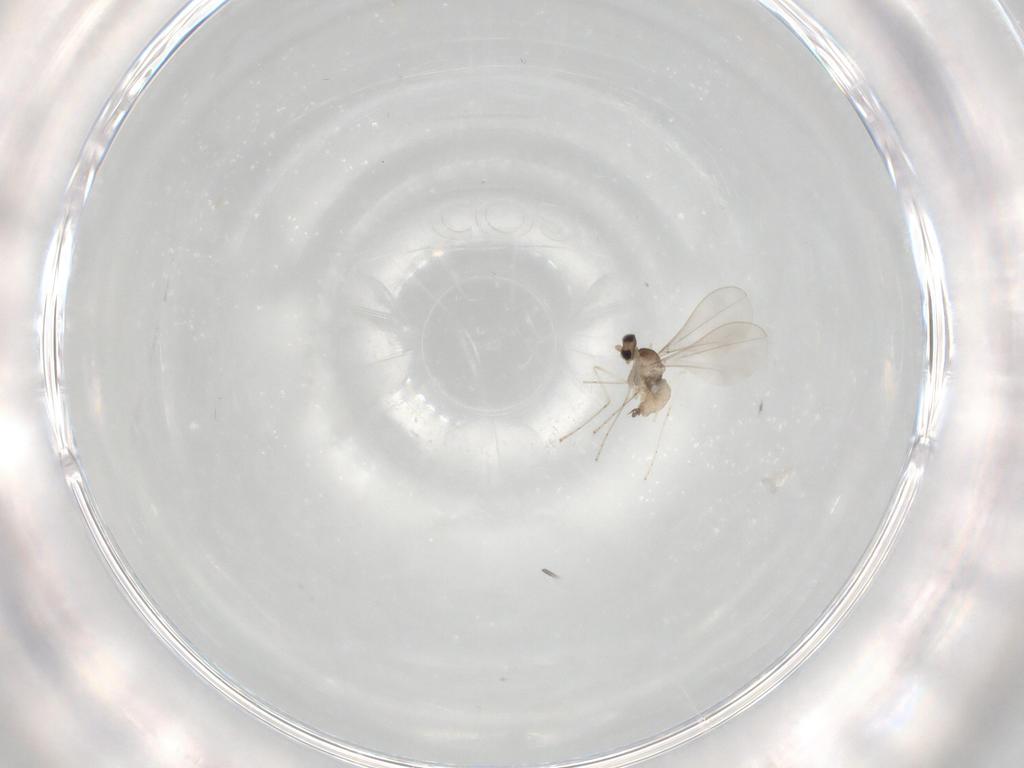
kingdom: Animalia
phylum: Arthropoda
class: Insecta
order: Diptera
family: Cecidomyiidae
